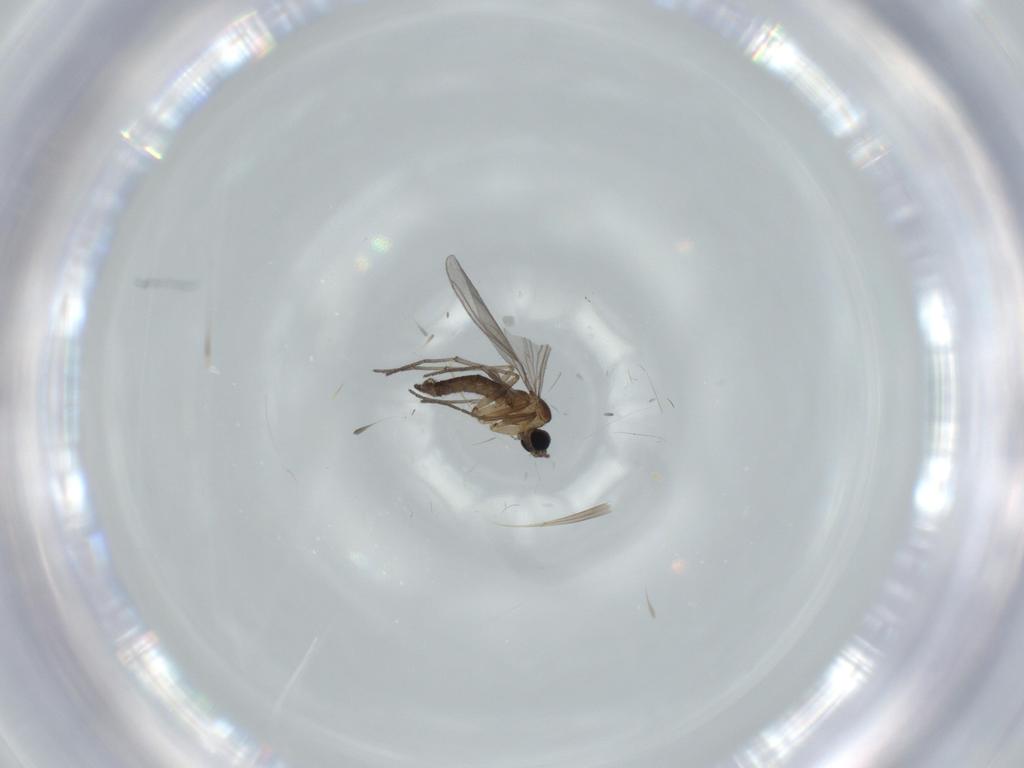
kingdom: Animalia
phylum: Arthropoda
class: Insecta
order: Diptera
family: Sciaridae
